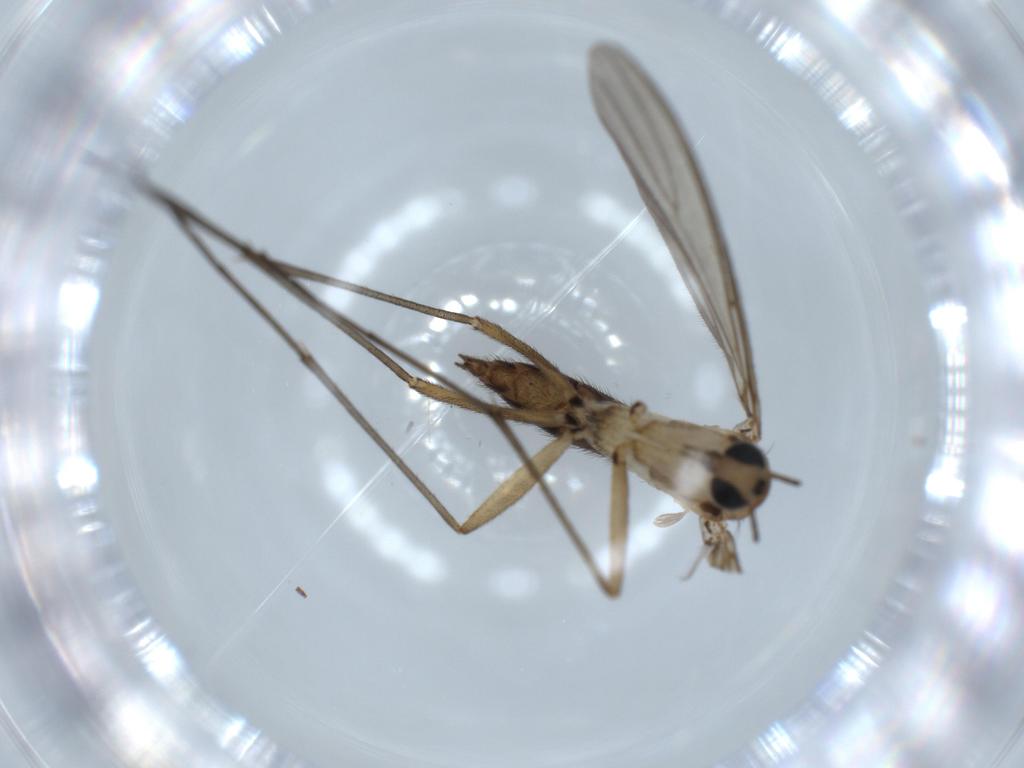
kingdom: Animalia
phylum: Arthropoda
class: Insecta
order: Diptera
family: Sciaridae
